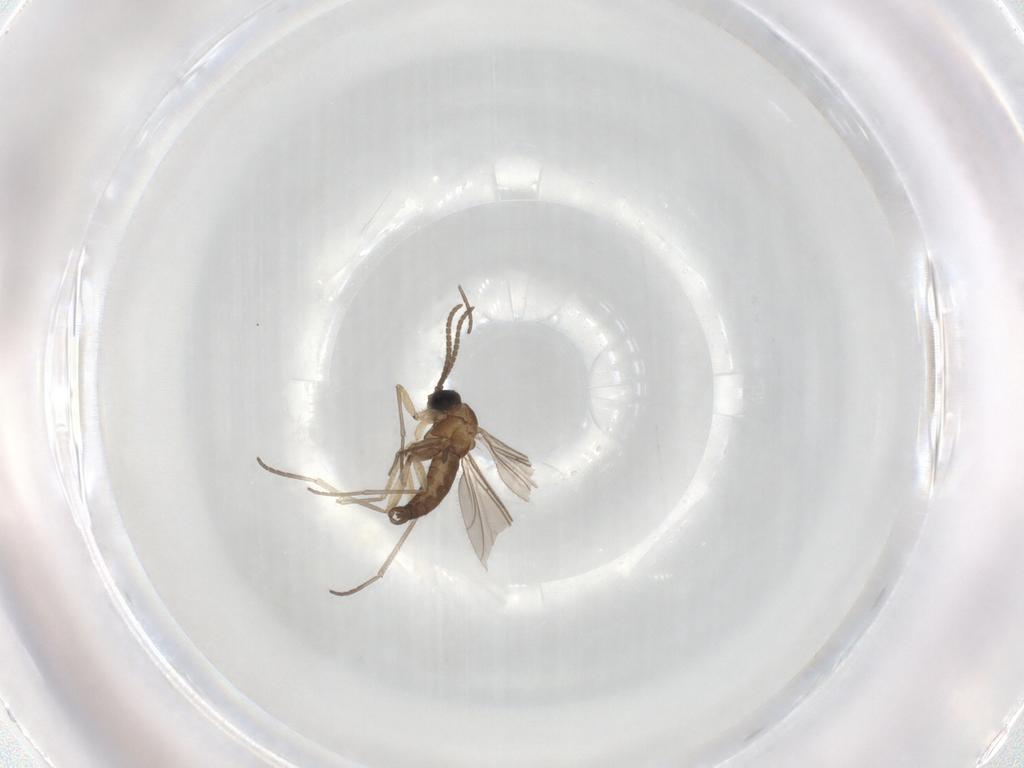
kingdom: Animalia
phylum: Arthropoda
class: Insecta
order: Diptera
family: Sciaridae
